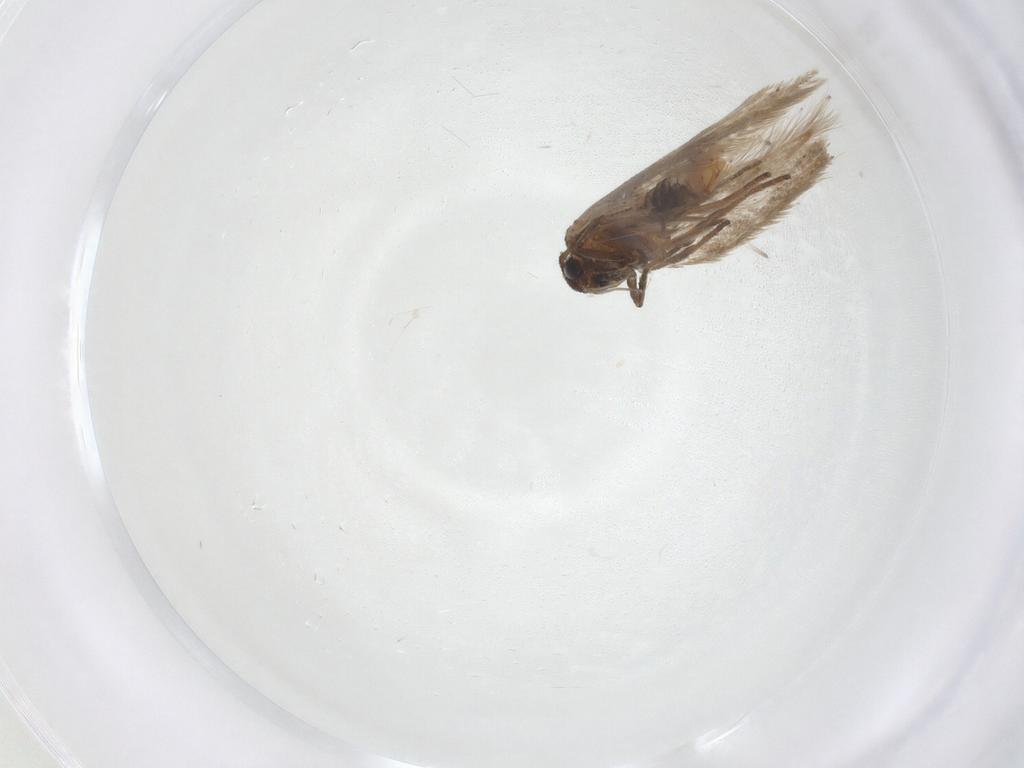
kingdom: Animalia
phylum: Arthropoda
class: Insecta
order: Lepidoptera
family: Gelechiidae
